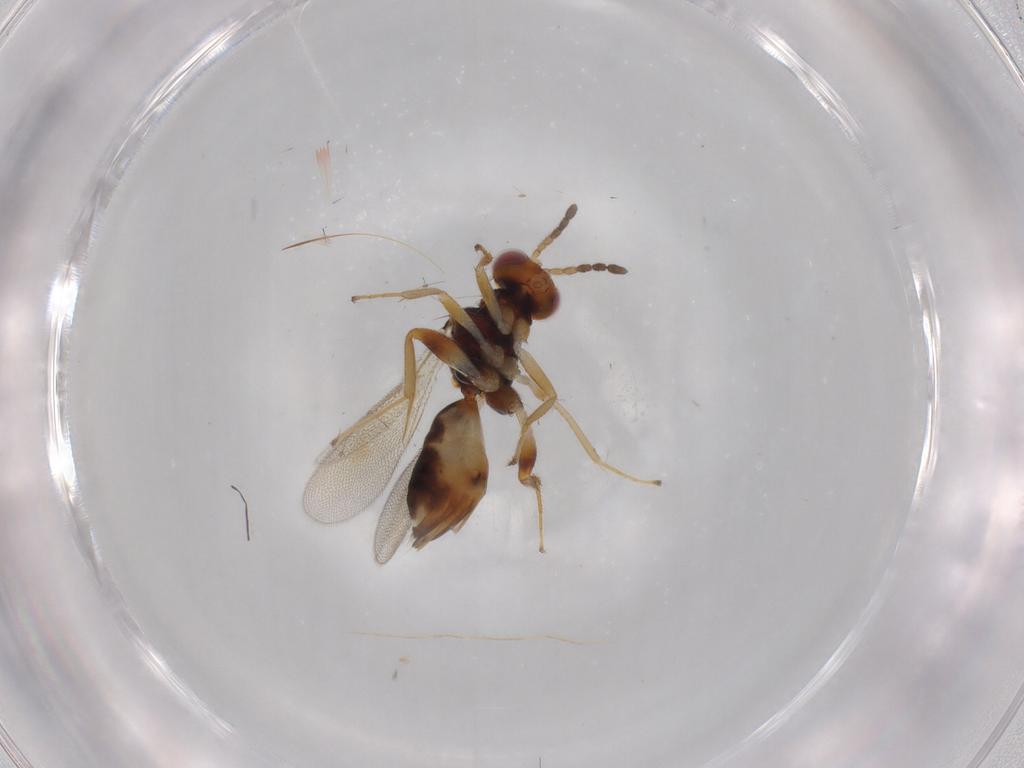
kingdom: Animalia
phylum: Arthropoda
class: Insecta
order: Hymenoptera
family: Eulophidae
